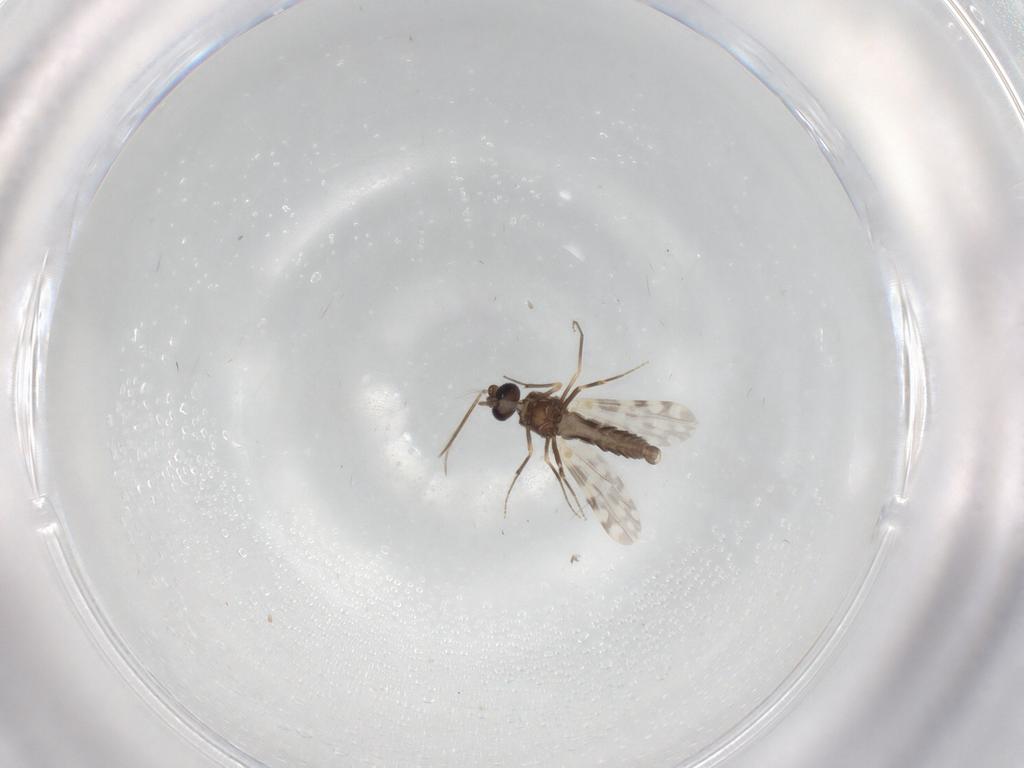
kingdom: Animalia
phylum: Arthropoda
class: Insecta
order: Diptera
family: Ceratopogonidae
